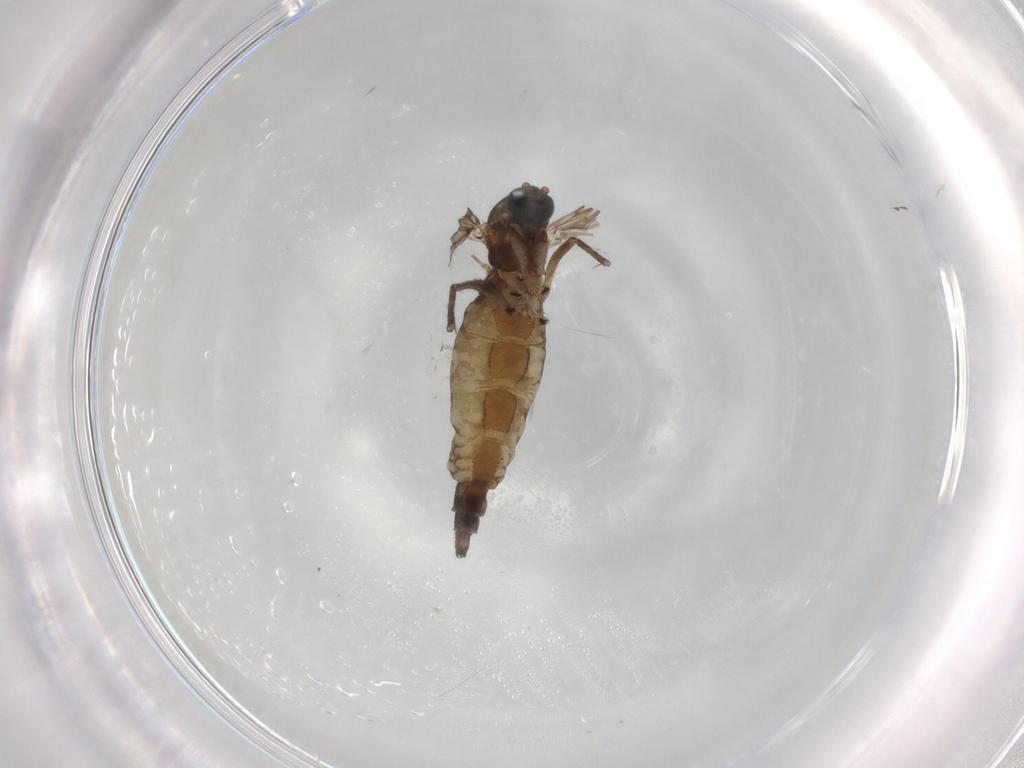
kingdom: Animalia
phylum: Arthropoda
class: Insecta
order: Diptera
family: Sciaridae
